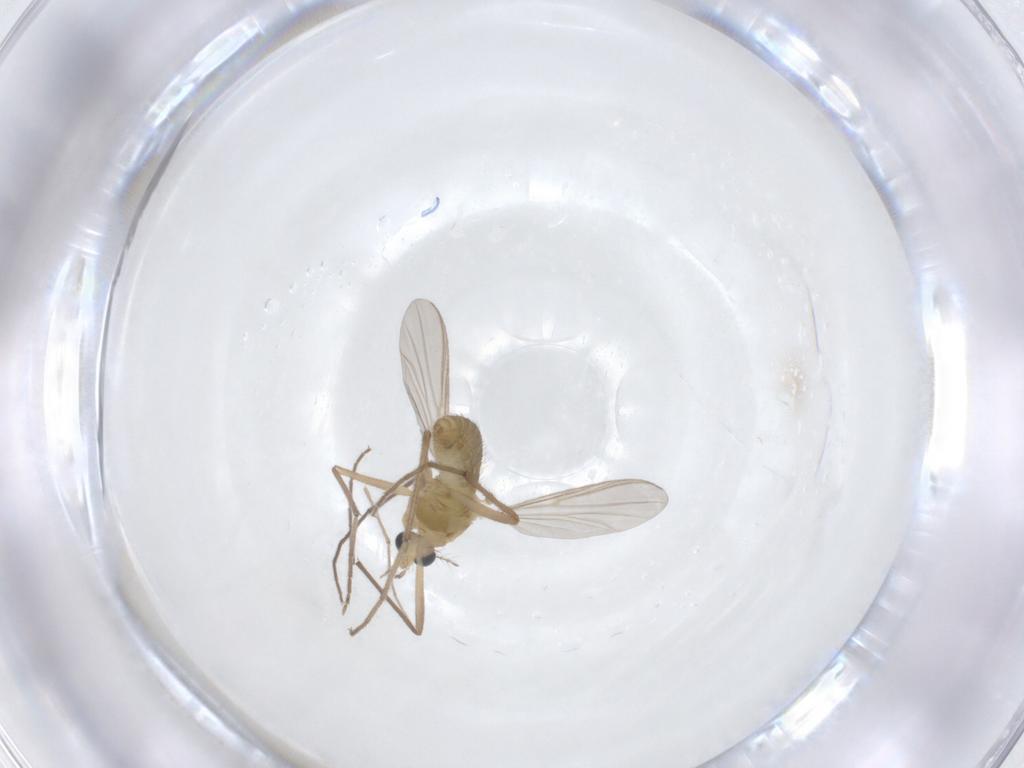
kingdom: Animalia
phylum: Arthropoda
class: Insecta
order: Diptera
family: Chironomidae
